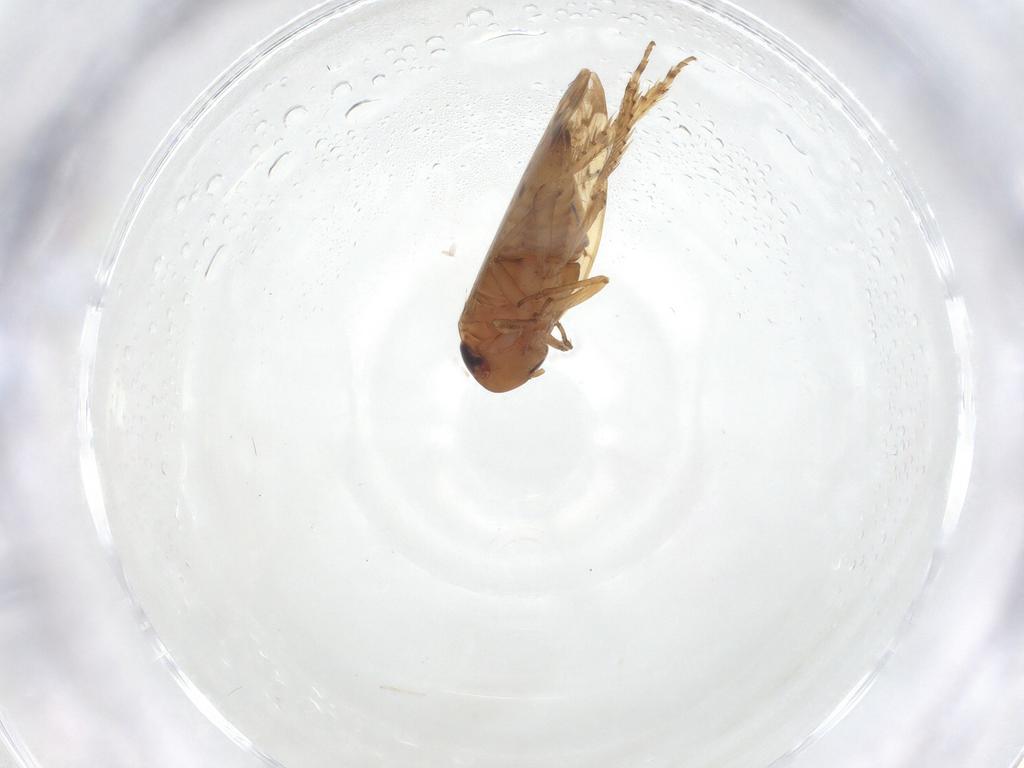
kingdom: Animalia
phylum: Arthropoda
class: Insecta
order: Hemiptera
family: Cicadellidae
